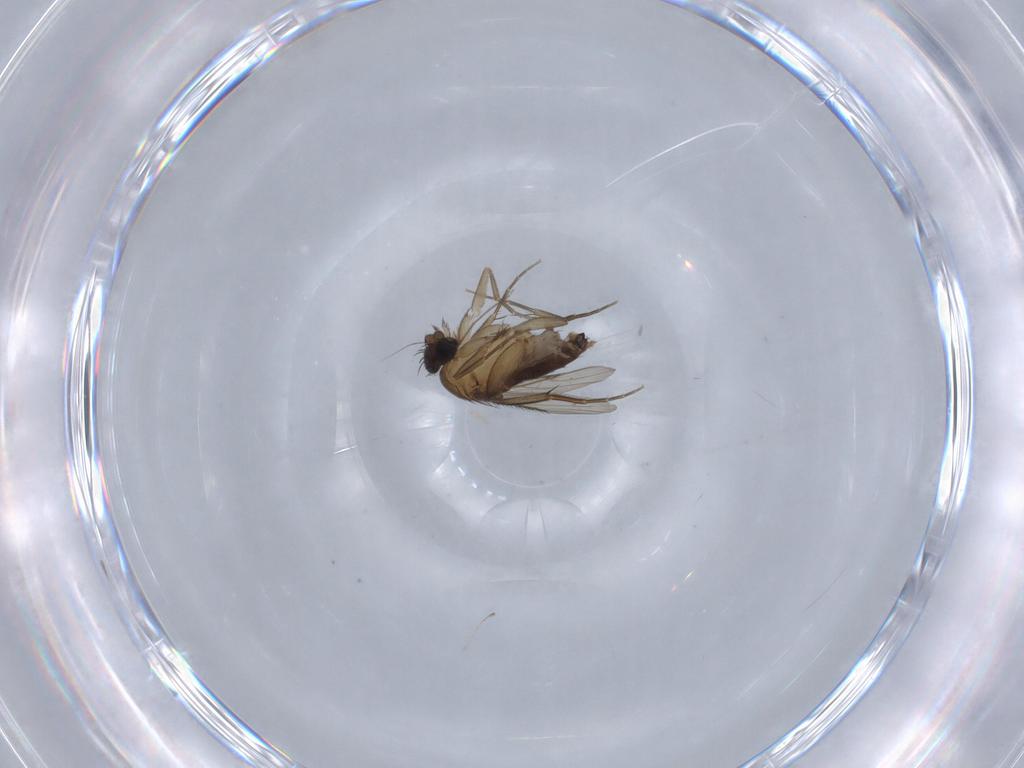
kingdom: Animalia
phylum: Arthropoda
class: Insecta
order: Diptera
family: Phoridae
